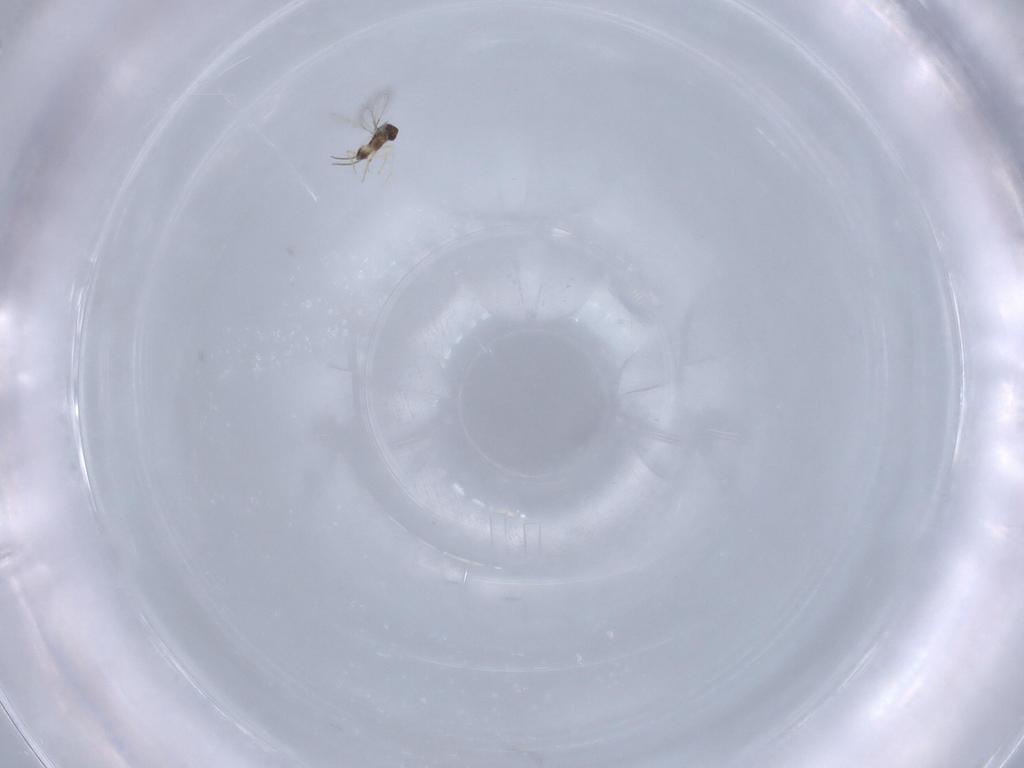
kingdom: Animalia
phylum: Arthropoda
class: Insecta
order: Hymenoptera
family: Mymaridae
